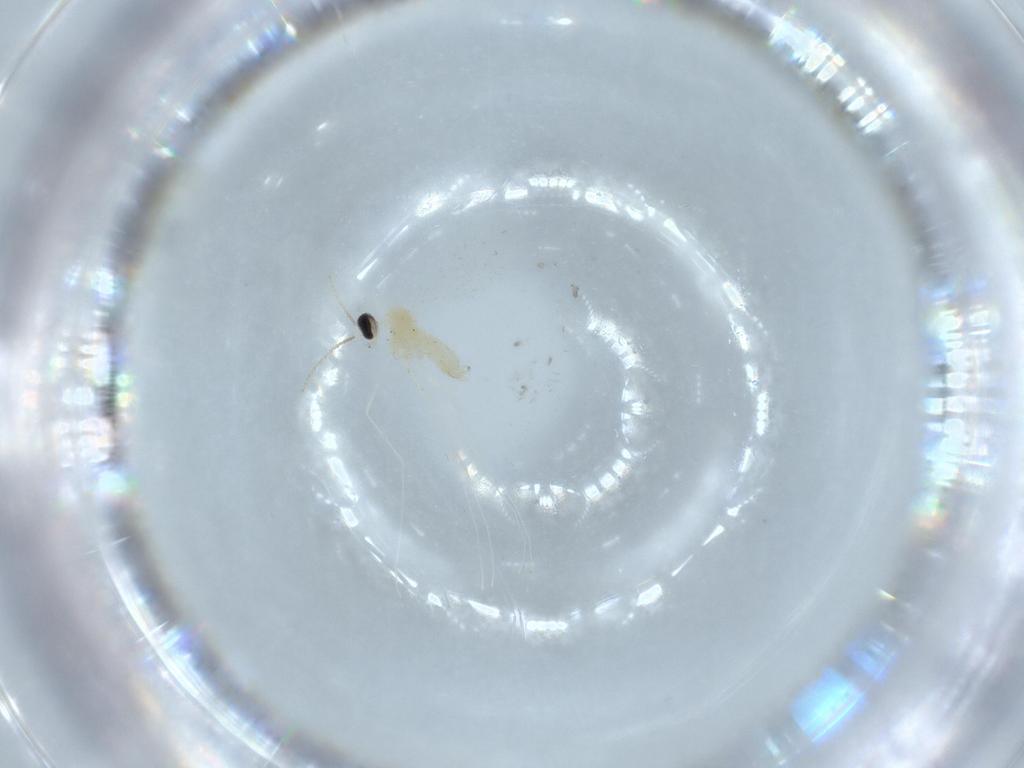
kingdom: Animalia
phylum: Arthropoda
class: Insecta
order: Diptera
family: Cecidomyiidae
